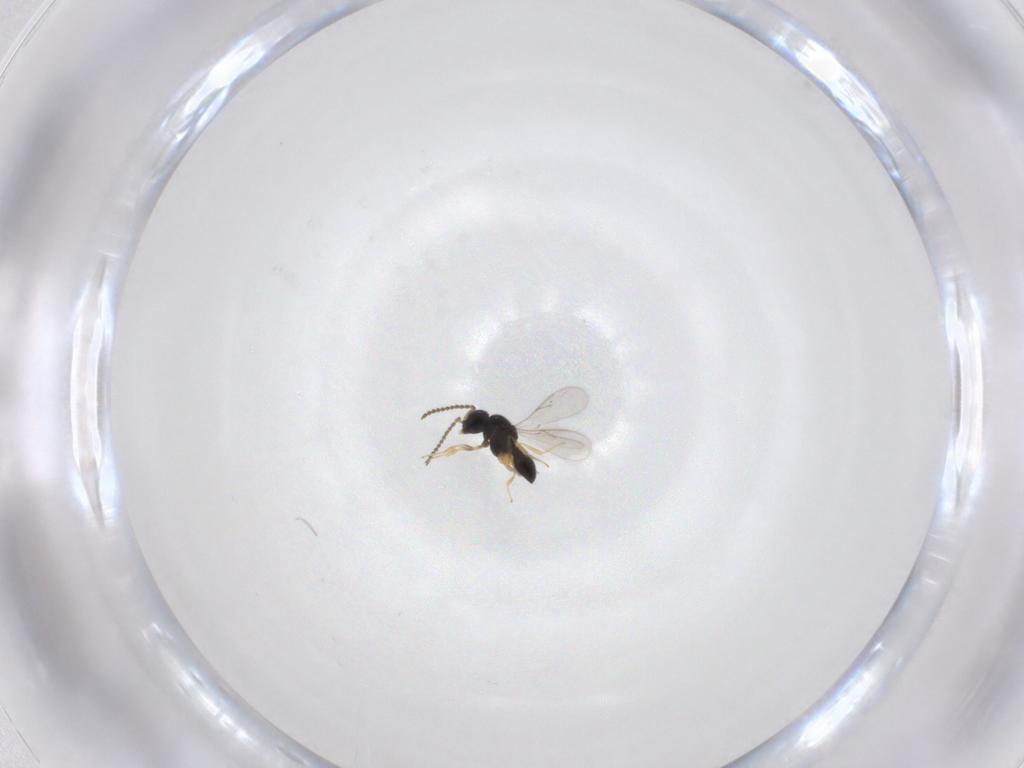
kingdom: Animalia
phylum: Arthropoda
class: Insecta
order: Hymenoptera
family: Scelionidae
